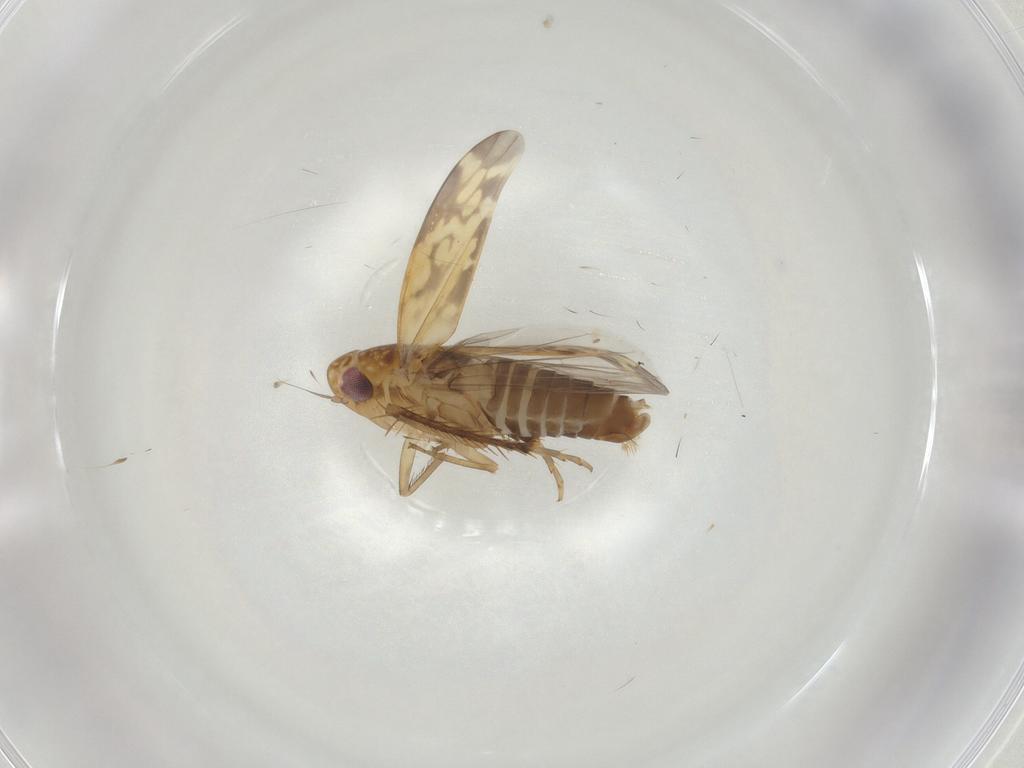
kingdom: Animalia
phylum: Arthropoda
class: Insecta
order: Hemiptera
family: Cicadellidae
